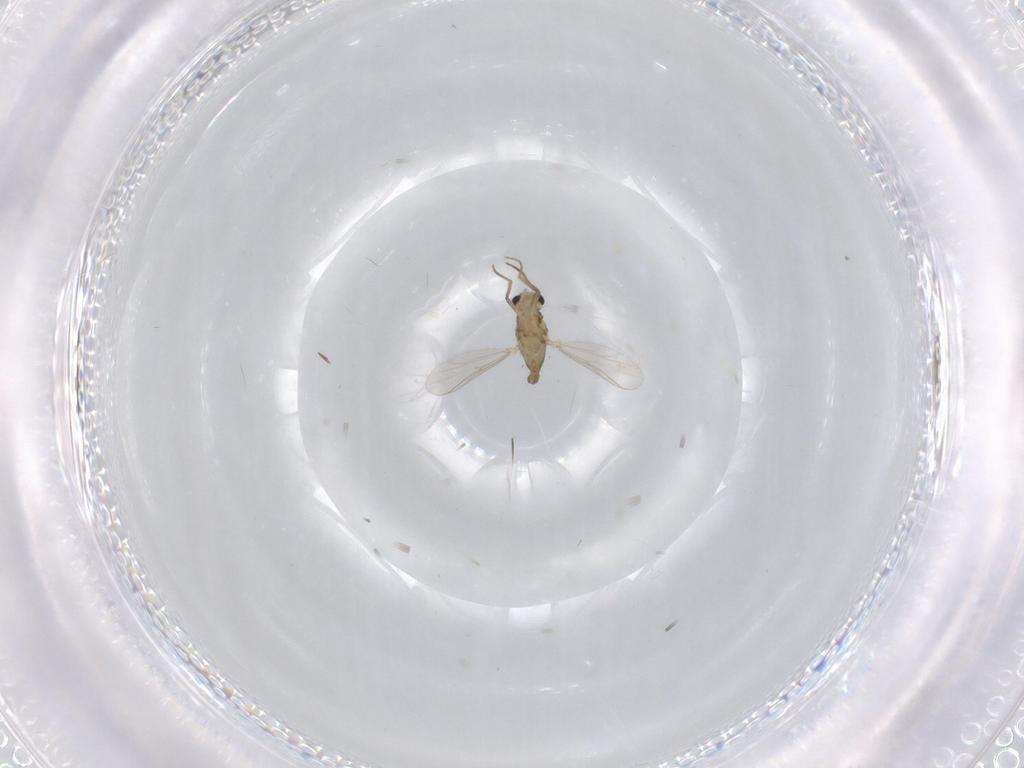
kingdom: Animalia
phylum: Arthropoda
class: Insecta
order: Diptera
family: Chironomidae
